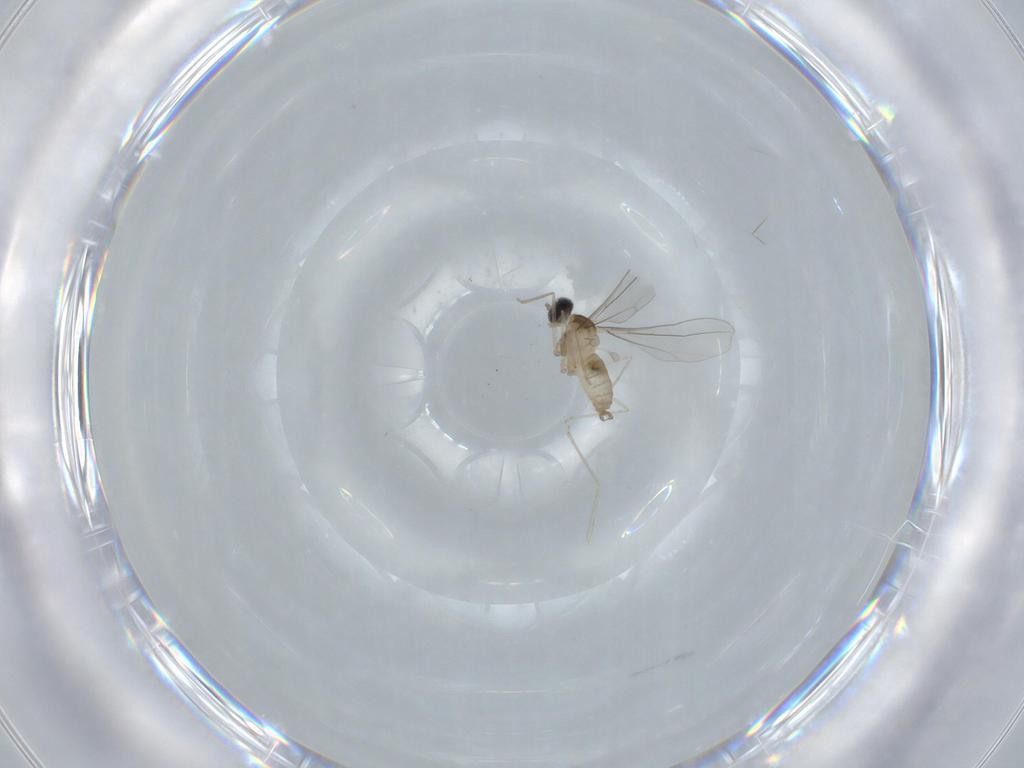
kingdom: Animalia
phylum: Arthropoda
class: Insecta
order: Diptera
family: Cecidomyiidae
